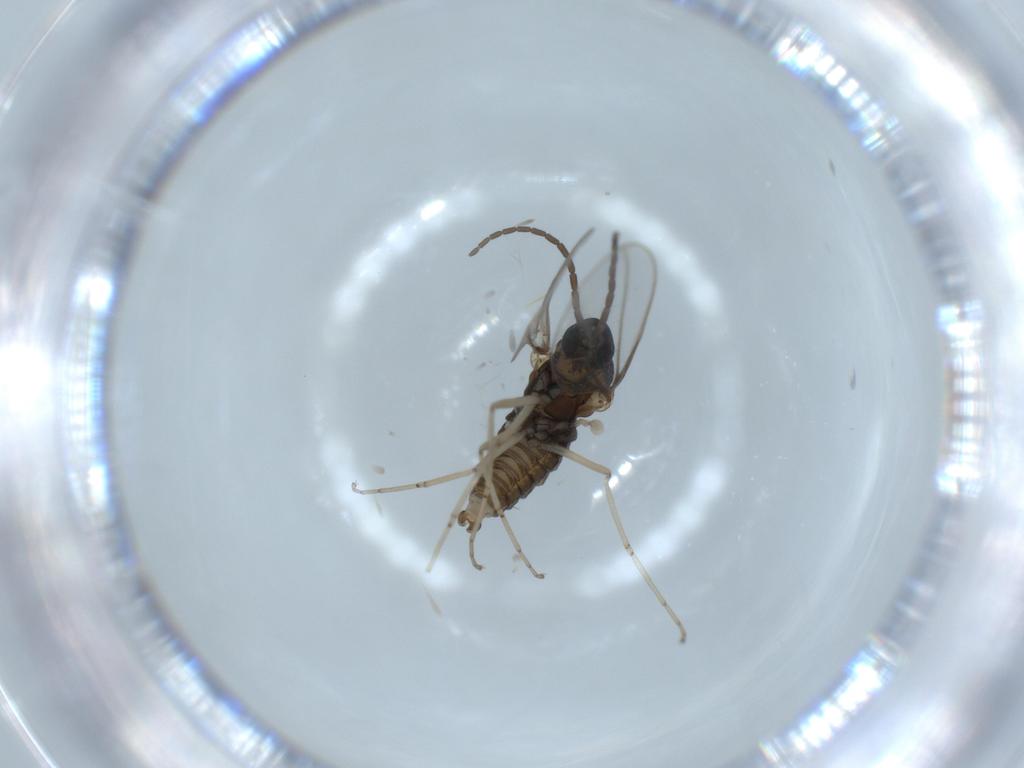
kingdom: Animalia
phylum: Arthropoda
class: Insecta
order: Diptera
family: Cecidomyiidae
